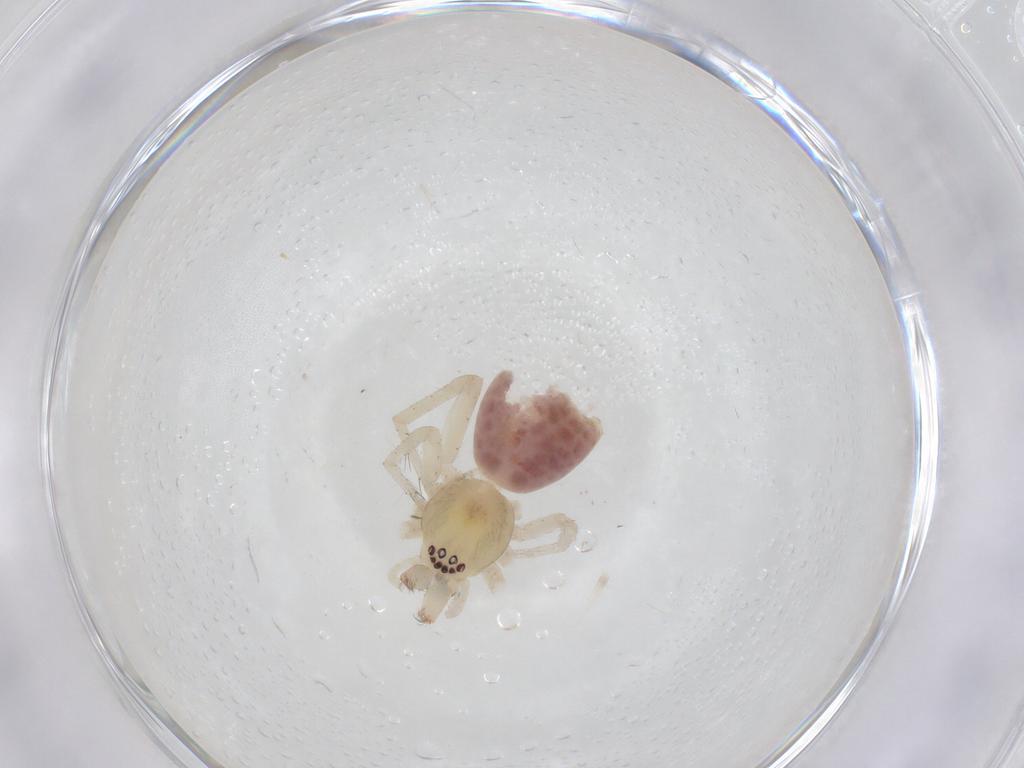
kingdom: Animalia
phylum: Arthropoda
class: Arachnida
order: Araneae
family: Anyphaenidae
